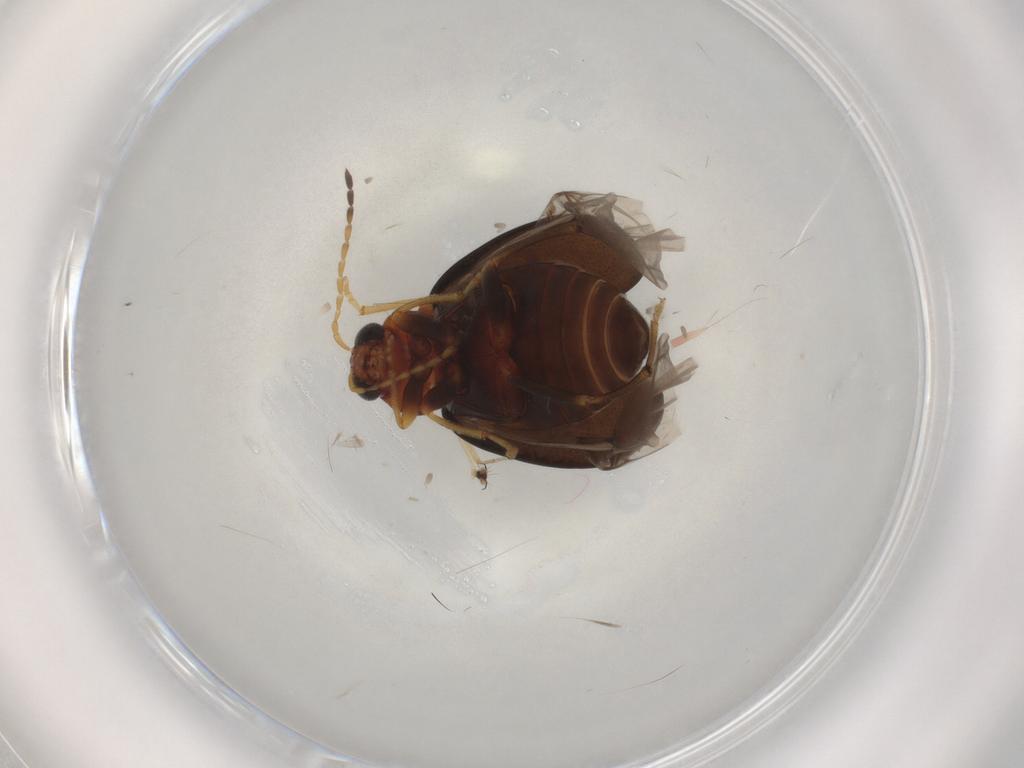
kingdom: Animalia
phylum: Arthropoda
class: Insecta
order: Coleoptera
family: Chrysomelidae
